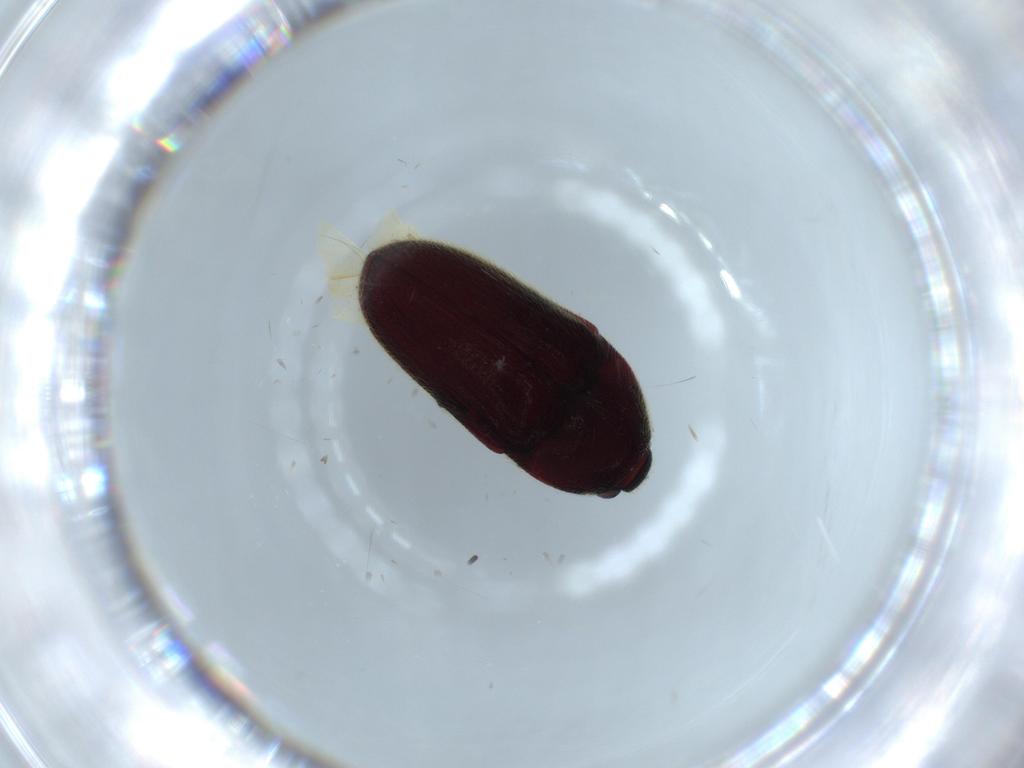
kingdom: Animalia
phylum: Arthropoda
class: Insecta
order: Coleoptera
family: Throscidae
